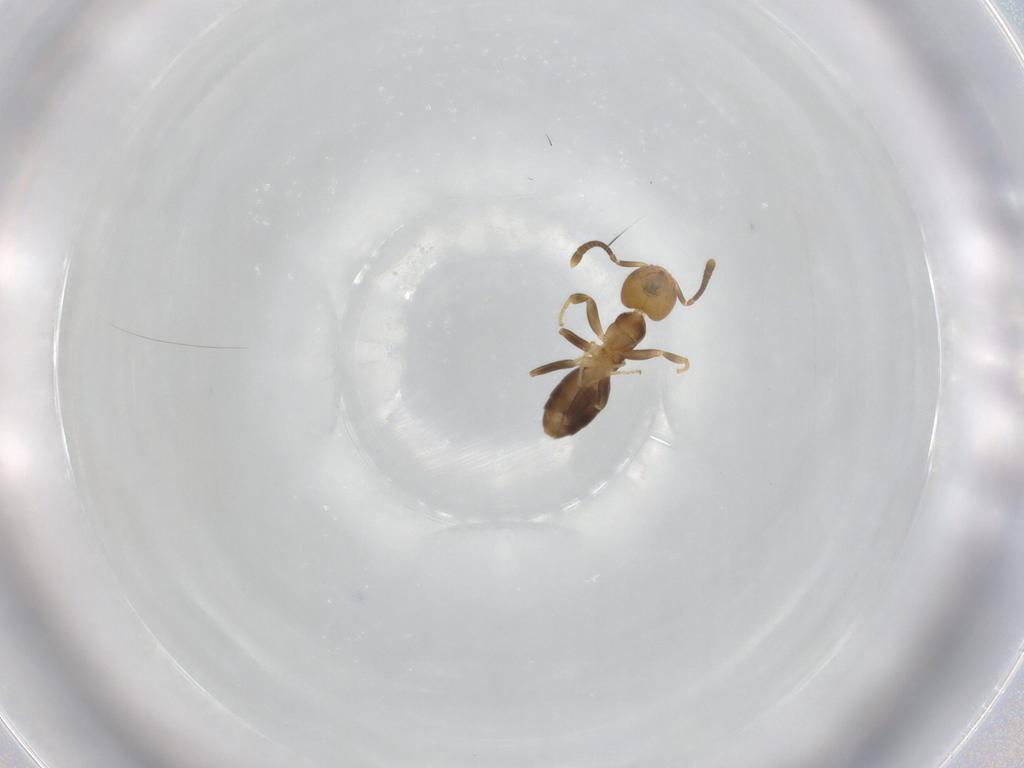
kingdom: Animalia
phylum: Arthropoda
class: Insecta
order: Hymenoptera
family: Formicidae
